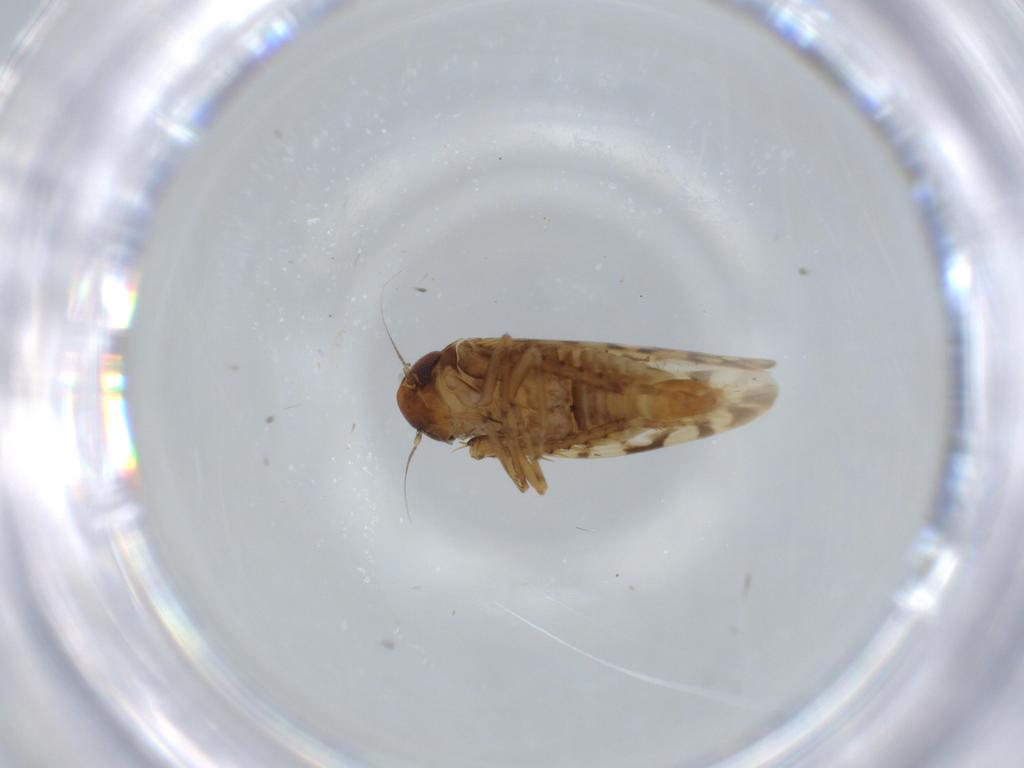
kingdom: Animalia
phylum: Arthropoda
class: Insecta
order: Hemiptera
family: Cicadellidae
